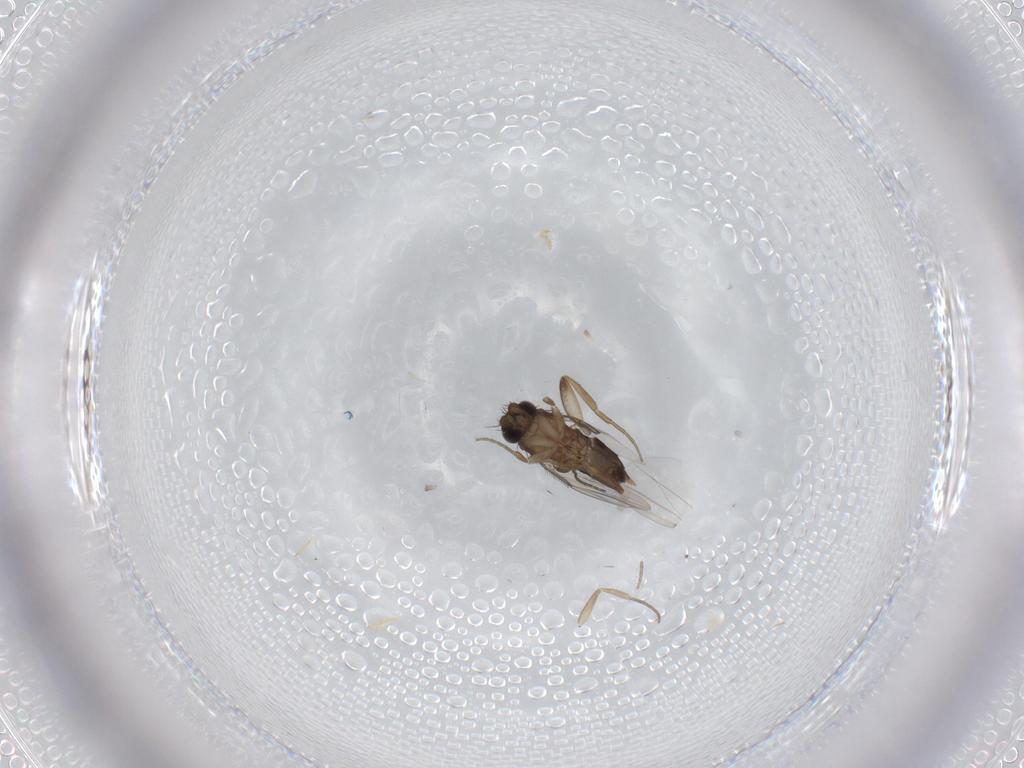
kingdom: Animalia
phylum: Arthropoda
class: Insecta
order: Diptera
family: Phoridae
